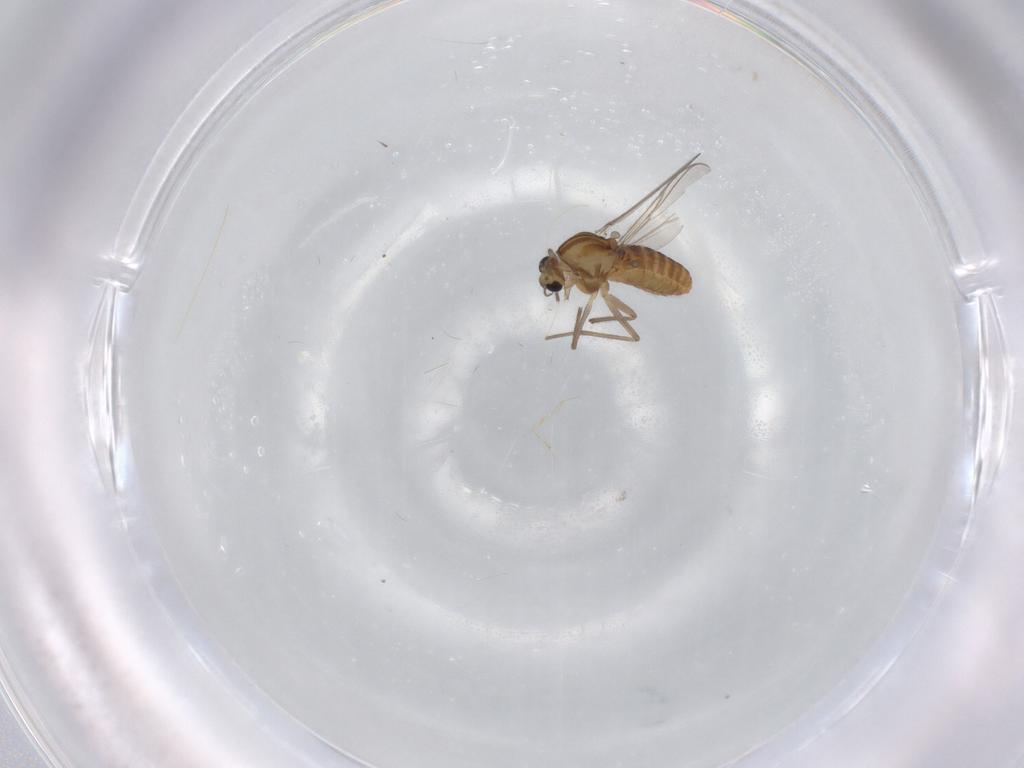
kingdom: Animalia
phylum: Arthropoda
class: Insecta
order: Diptera
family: Chironomidae
